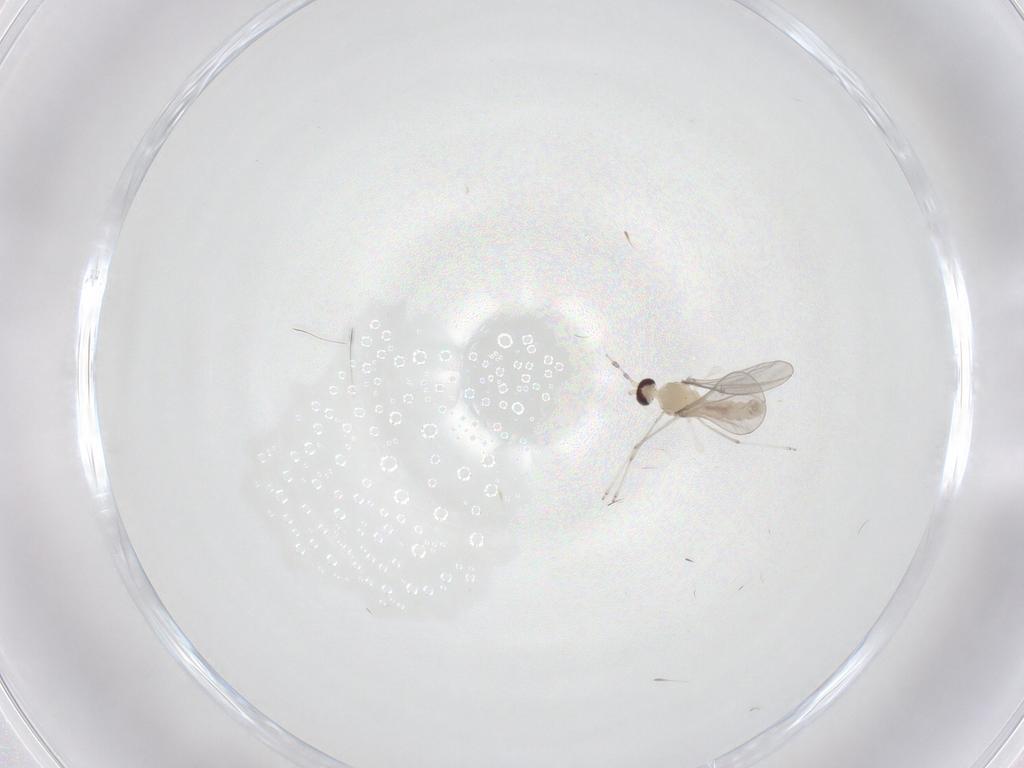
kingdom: Animalia
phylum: Arthropoda
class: Insecta
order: Diptera
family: Cecidomyiidae
